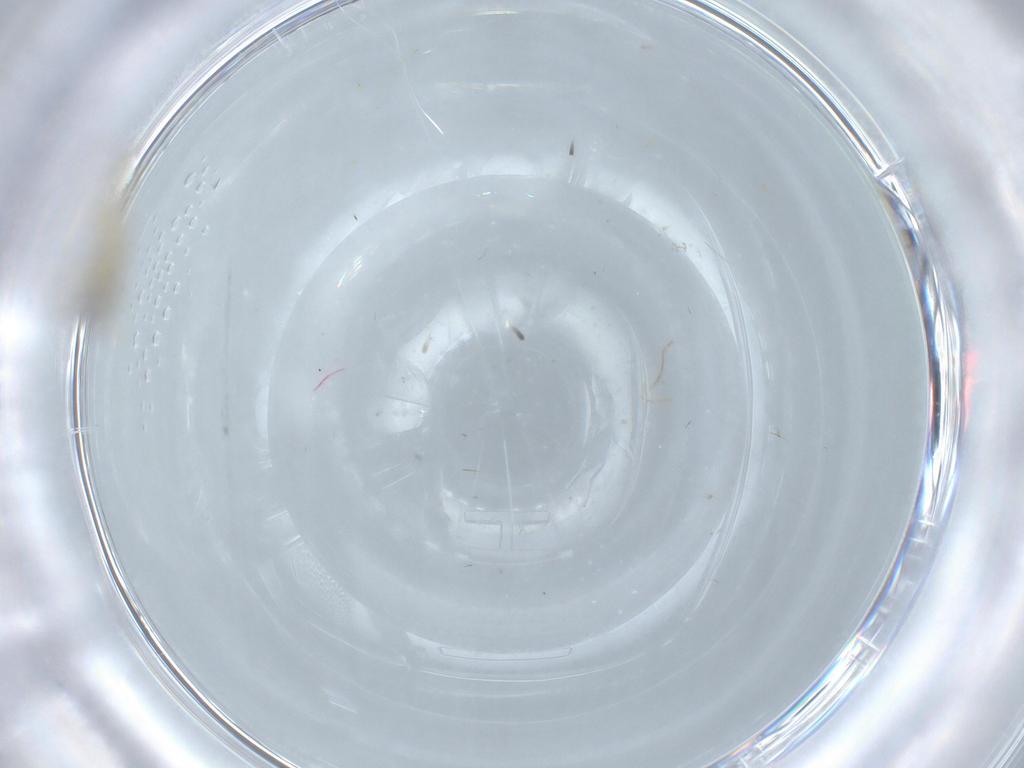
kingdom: Animalia
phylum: Arthropoda
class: Insecta
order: Diptera
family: Chironomidae
